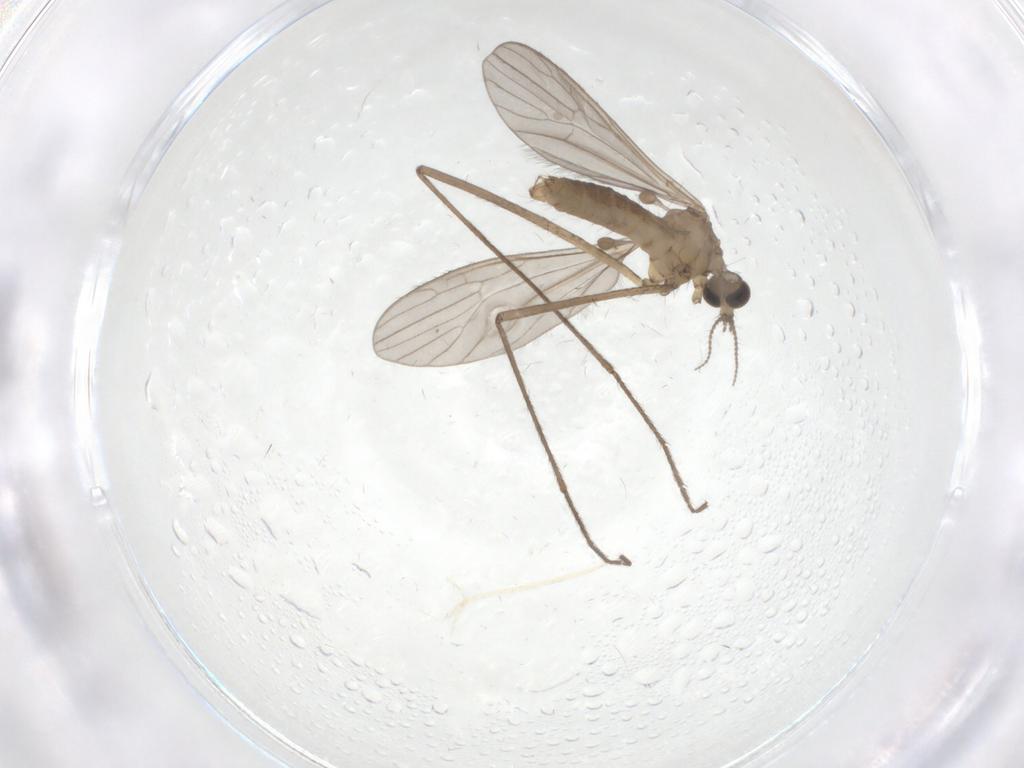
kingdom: Animalia
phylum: Arthropoda
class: Insecta
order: Diptera
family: Limoniidae
